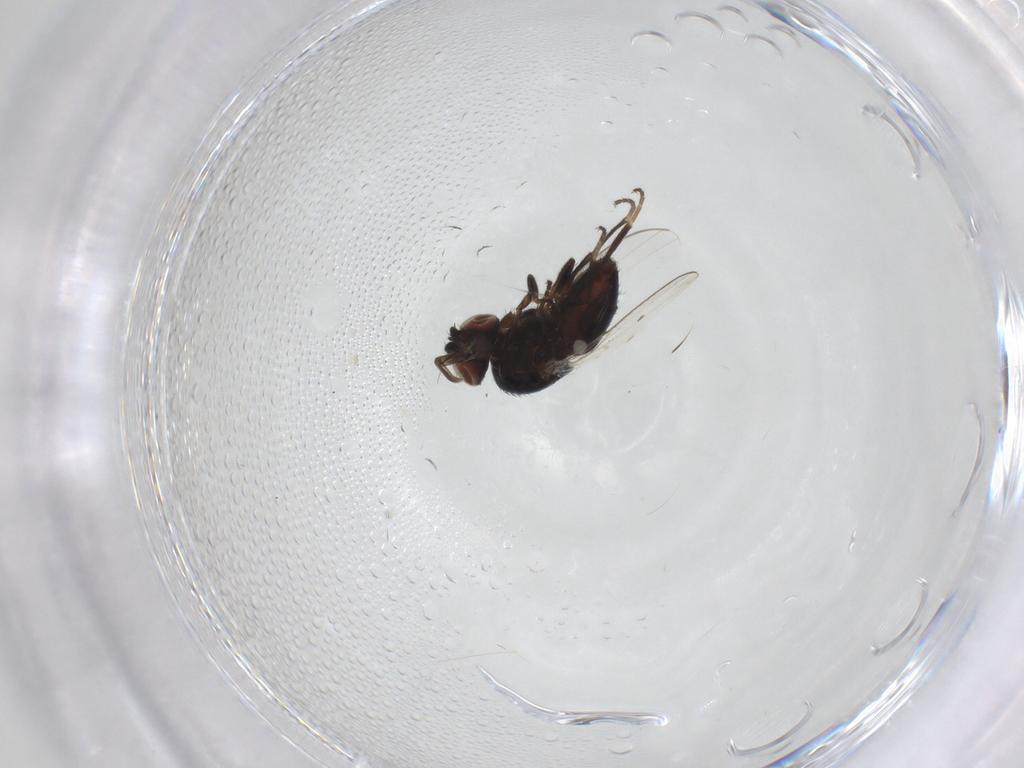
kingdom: Animalia
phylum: Arthropoda
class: Insecta
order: Diptera
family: Milichiidae
